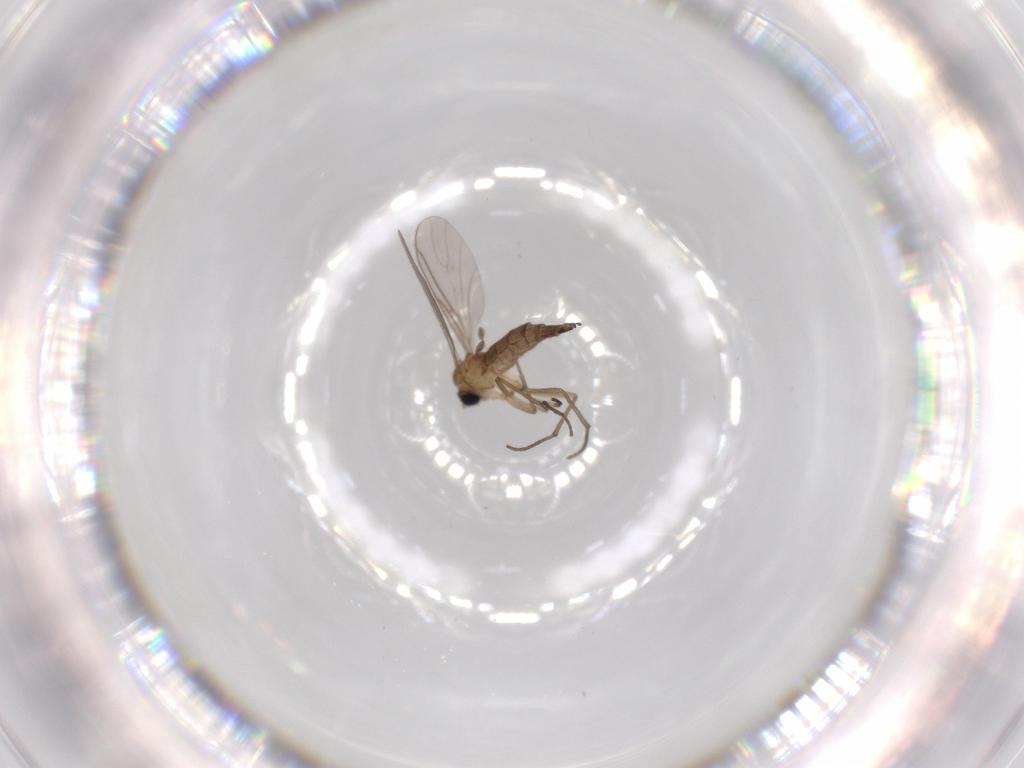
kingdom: Animalia
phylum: Arthropoda
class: Insecta
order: Diptera
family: Sciaridae
